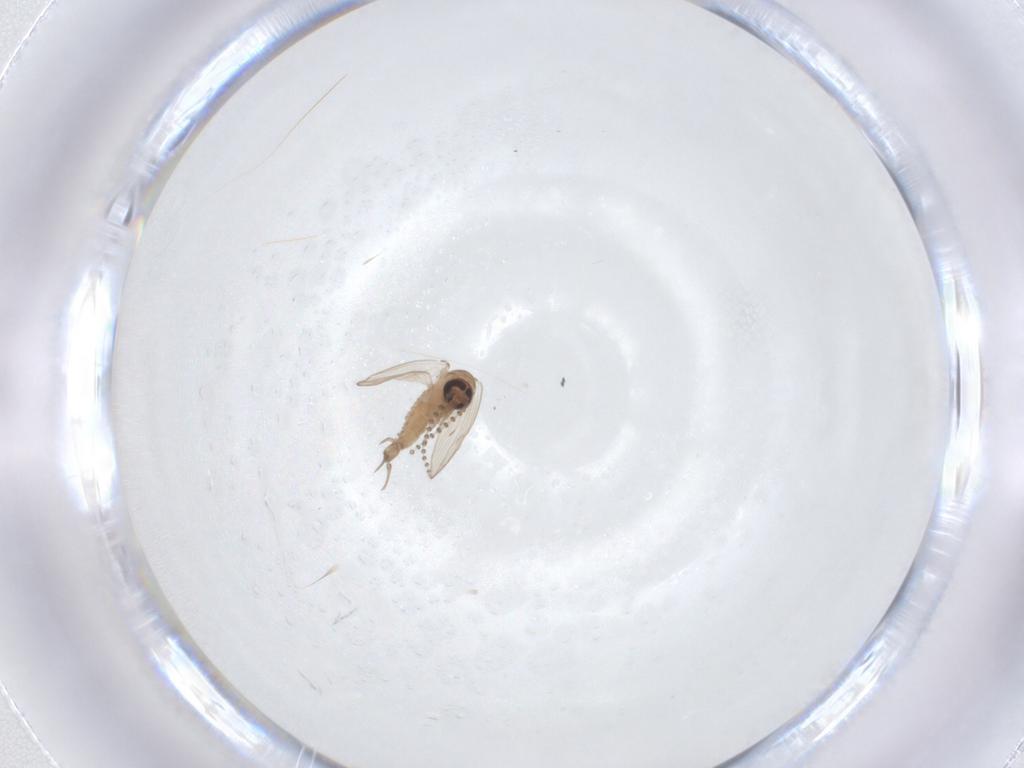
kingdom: Animalia
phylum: Arthropoda
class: Insecta
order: Diptera
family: Psychodidae
